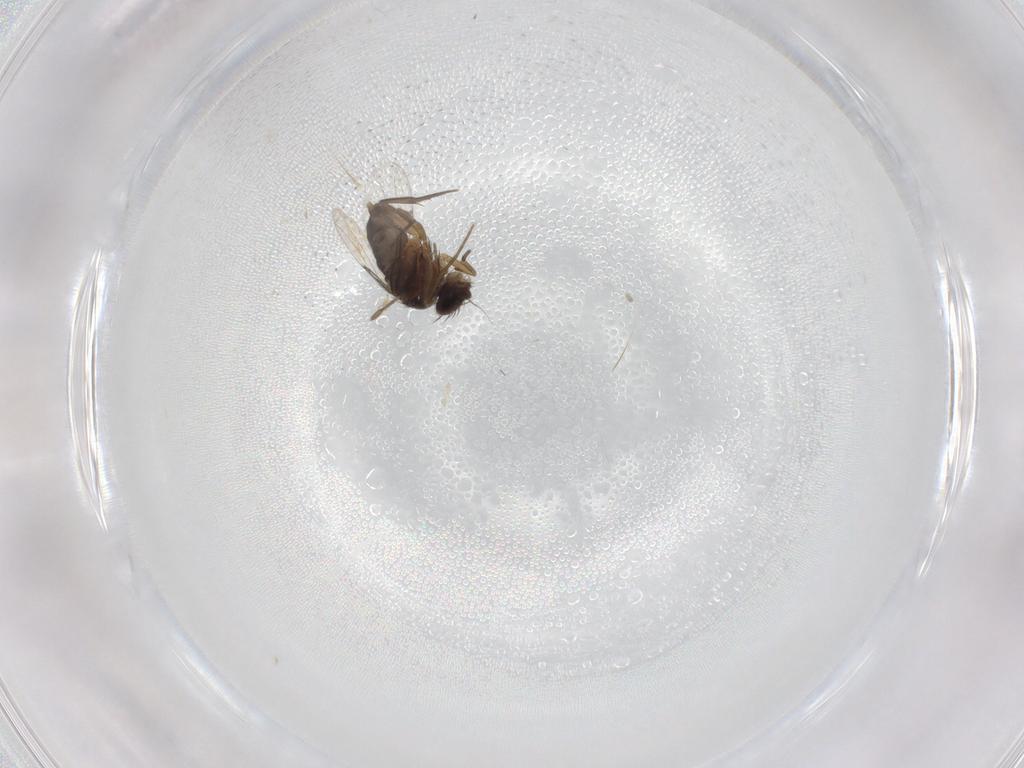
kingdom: Animalia
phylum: Arthropoda
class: Insecta
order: Diptera
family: Phoridae
